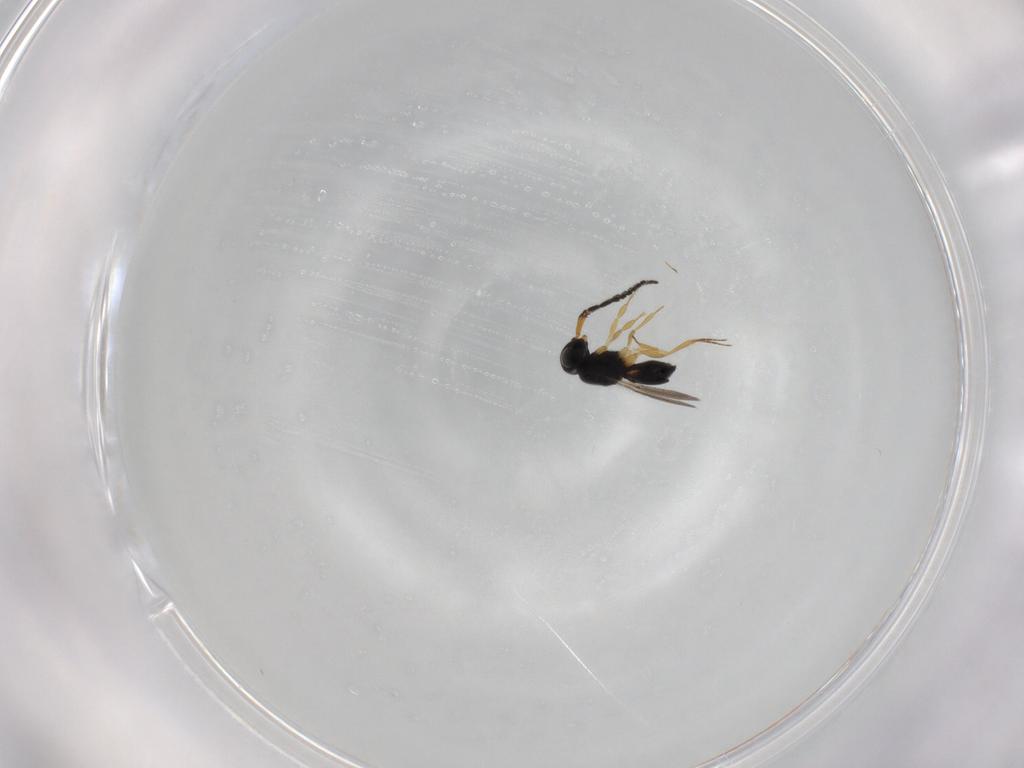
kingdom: Animalia
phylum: Arthropoda
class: Insecta
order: Hymenoptera
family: Scelionidae
